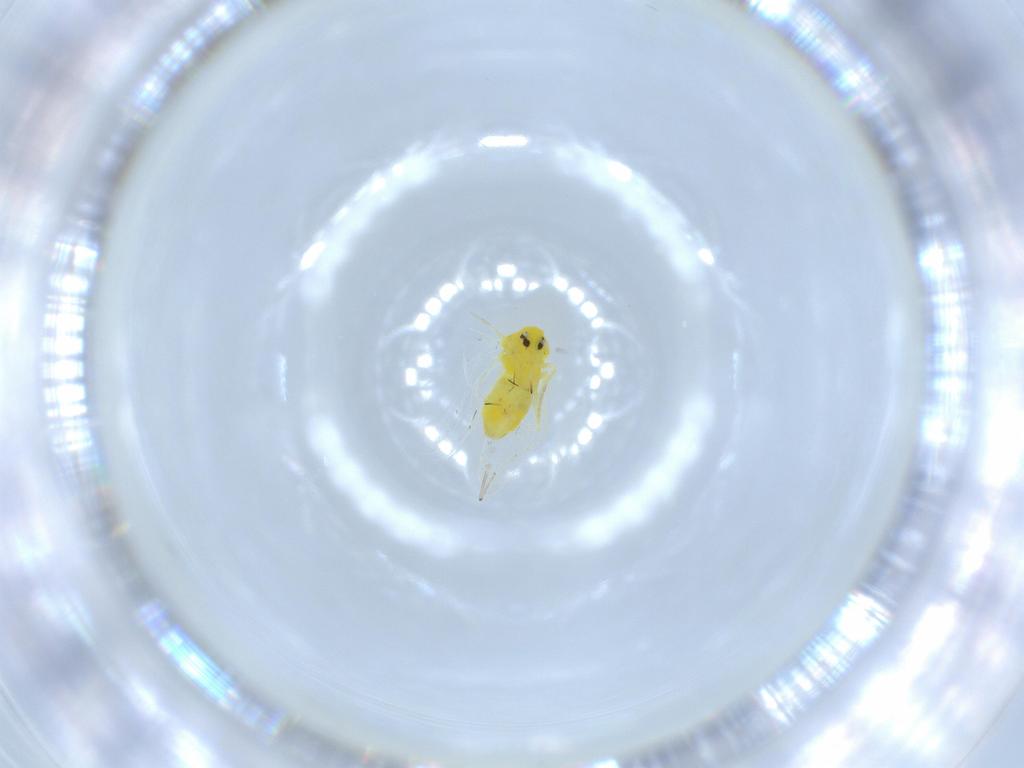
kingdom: Animalia
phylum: Arthropoda
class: Insecta
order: Hemiptera
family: Aleyrodidae
